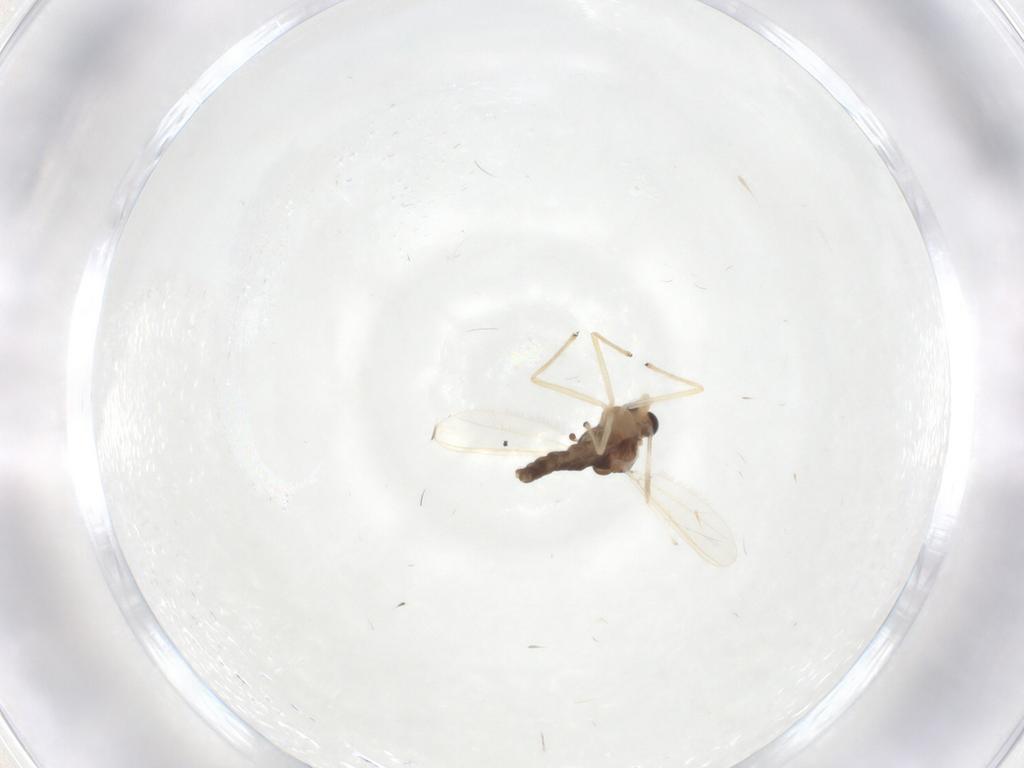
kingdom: Animalia
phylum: Arthropoda
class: Insecta
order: Diptera
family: Chironomidae
